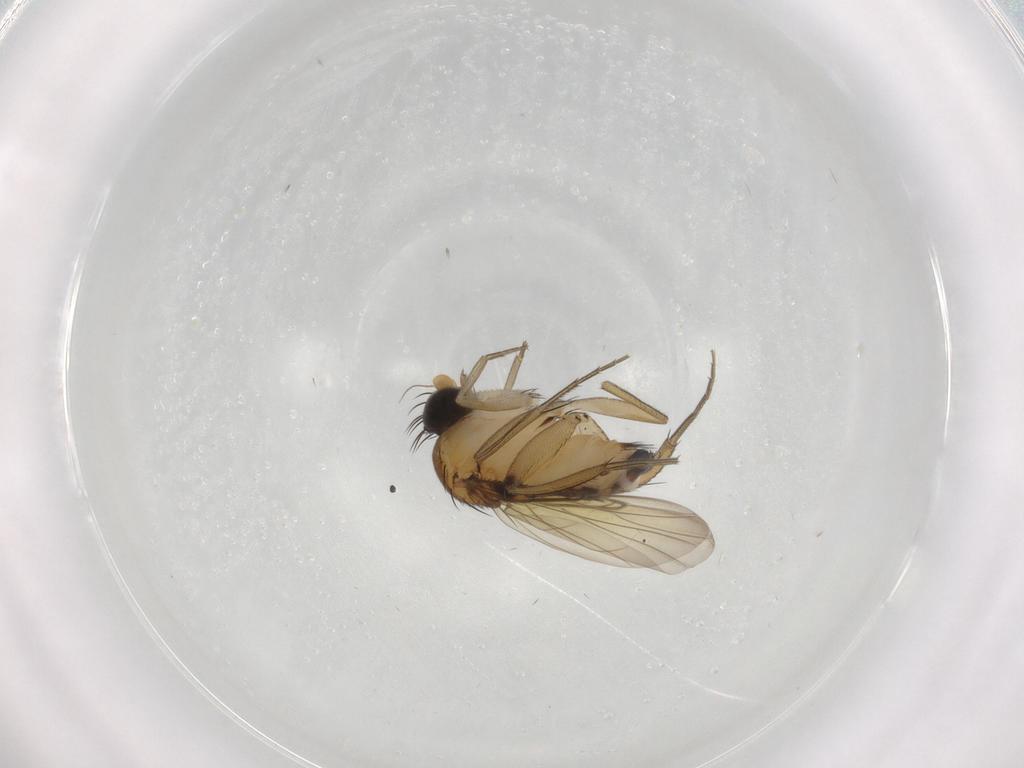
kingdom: Animalia
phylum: Arthropoda
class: Insecta
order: Diptera
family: Phoridae
